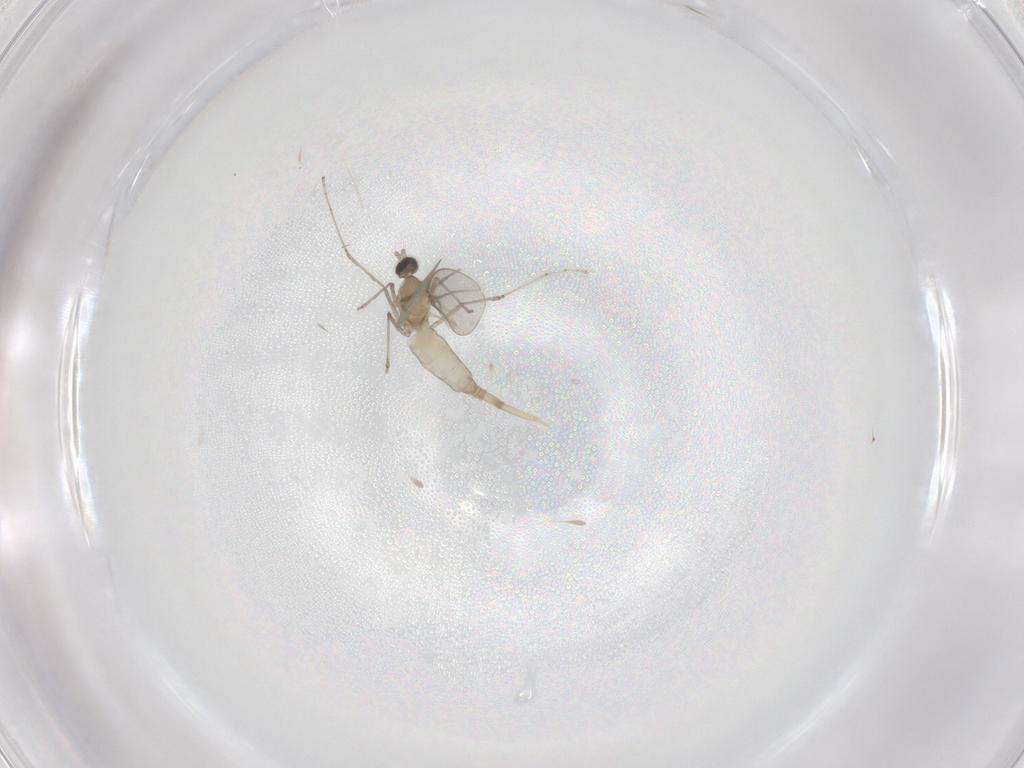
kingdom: Animalia
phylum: Arthropoda
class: Insecta
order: Diptera
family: Cecidomyiidae
